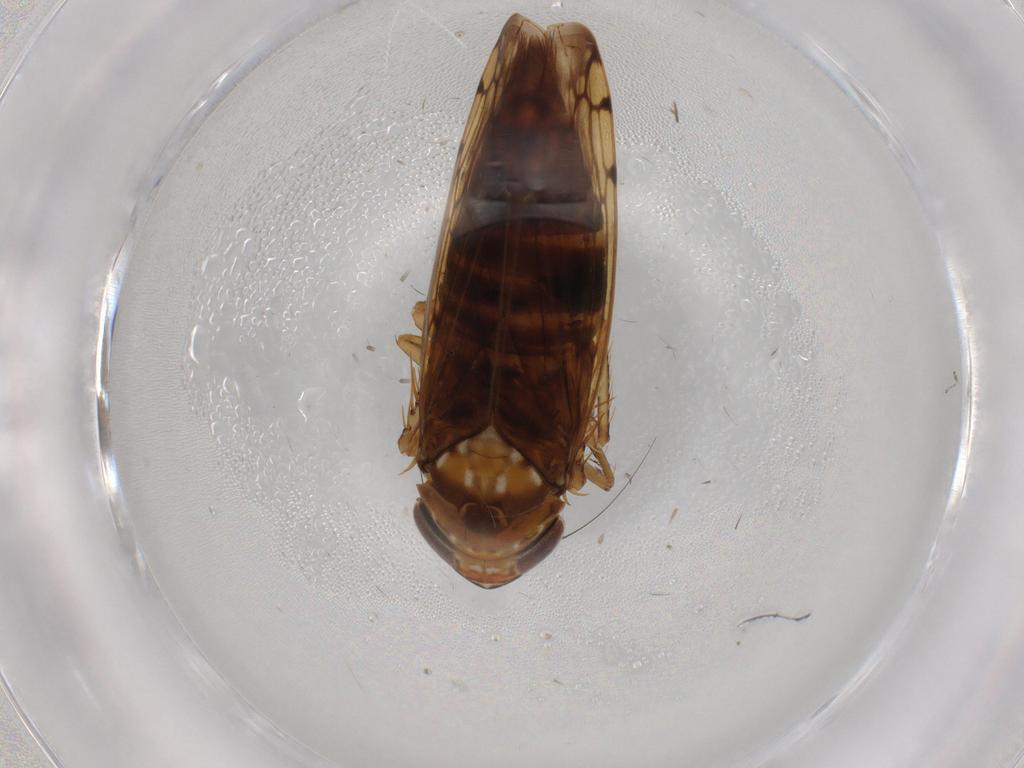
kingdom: Animalia
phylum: Arthropoda
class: Insecta
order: Hemiptera
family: Cicadellidae
